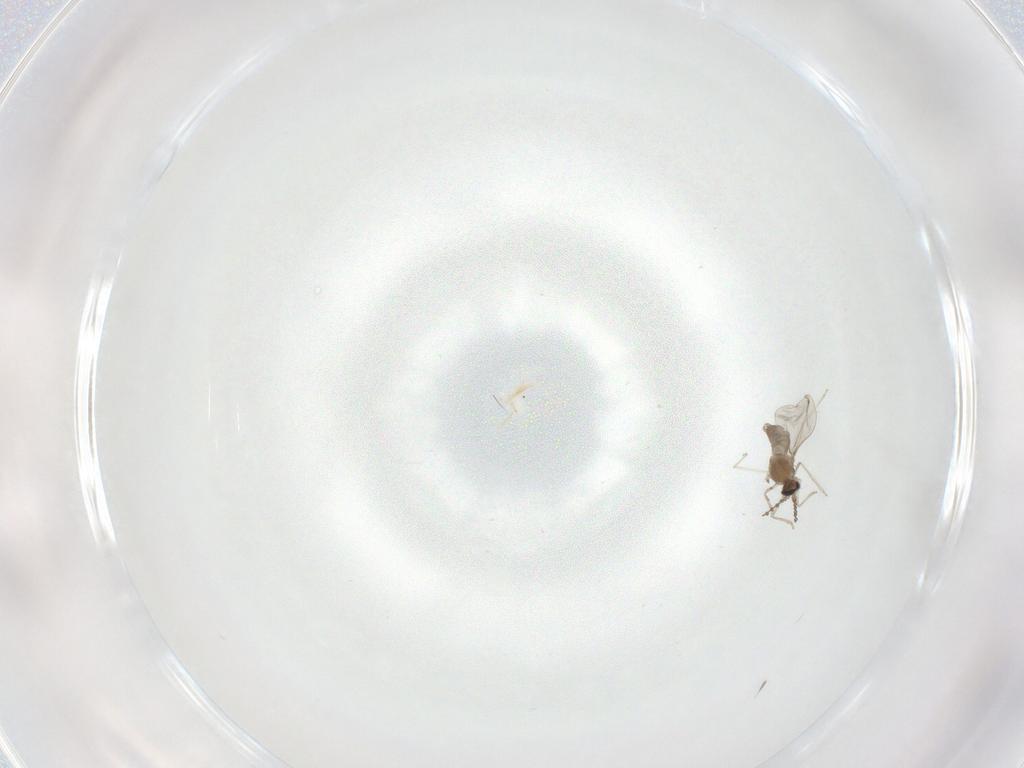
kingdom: Animalia
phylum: Arthropoda
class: Insecta
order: Diptera
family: Cecidomyiidae
